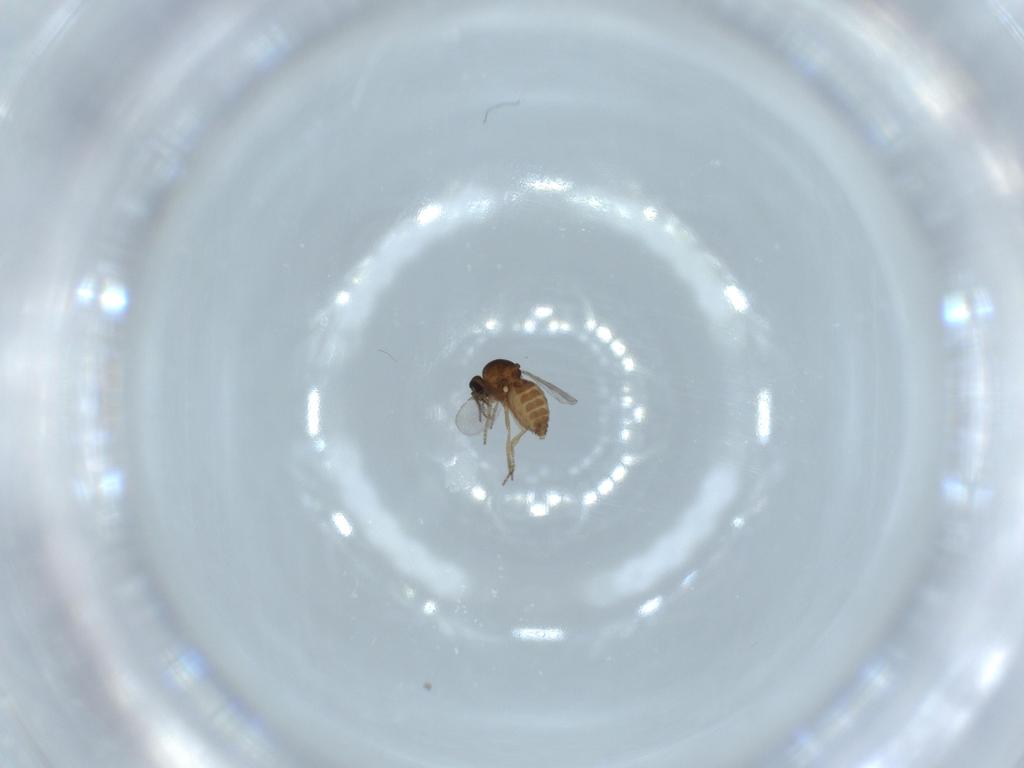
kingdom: Animalia
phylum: Arthropoda
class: Insecta
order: Diptera
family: Ceratopogonidae
